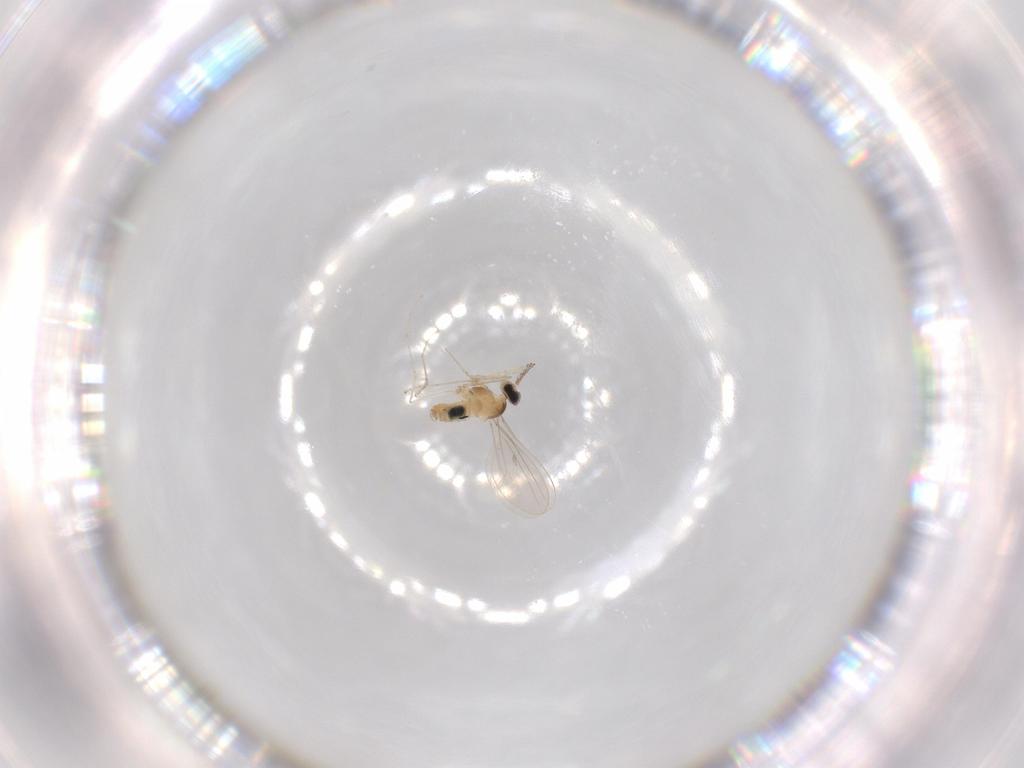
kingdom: Animalia
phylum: Arthropoda
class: Insecta
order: Diptera
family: Cecidomyiidae
